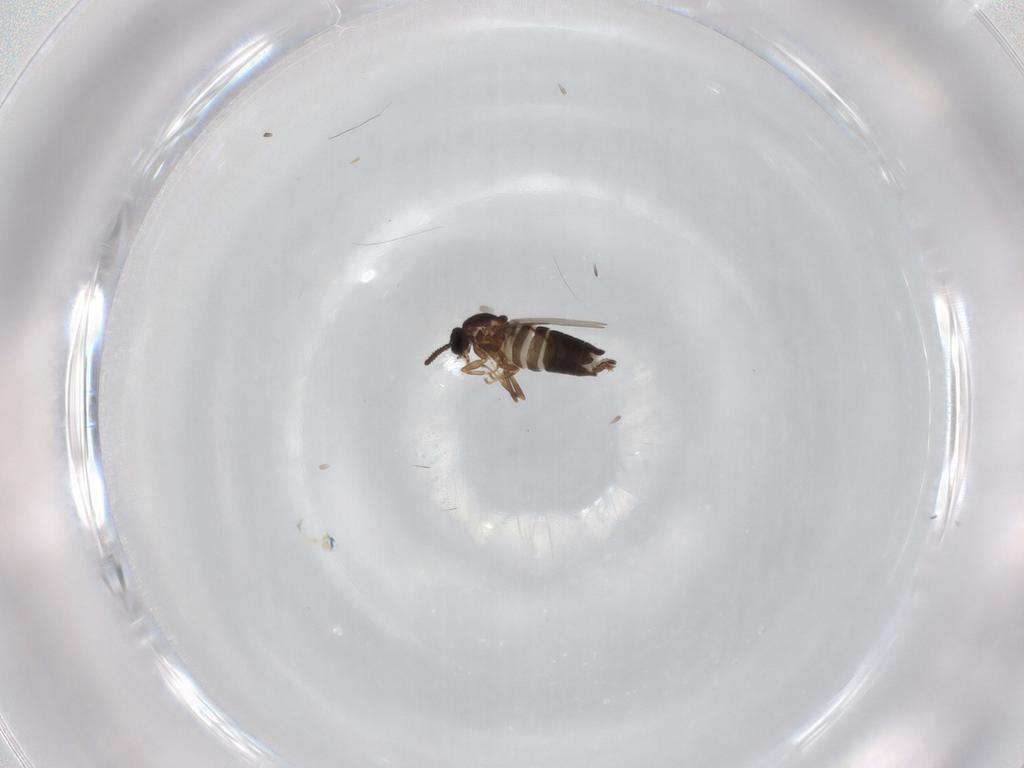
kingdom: Animalia
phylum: Arthropoda
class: Insecta
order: Diptera
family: Scatopsidae
